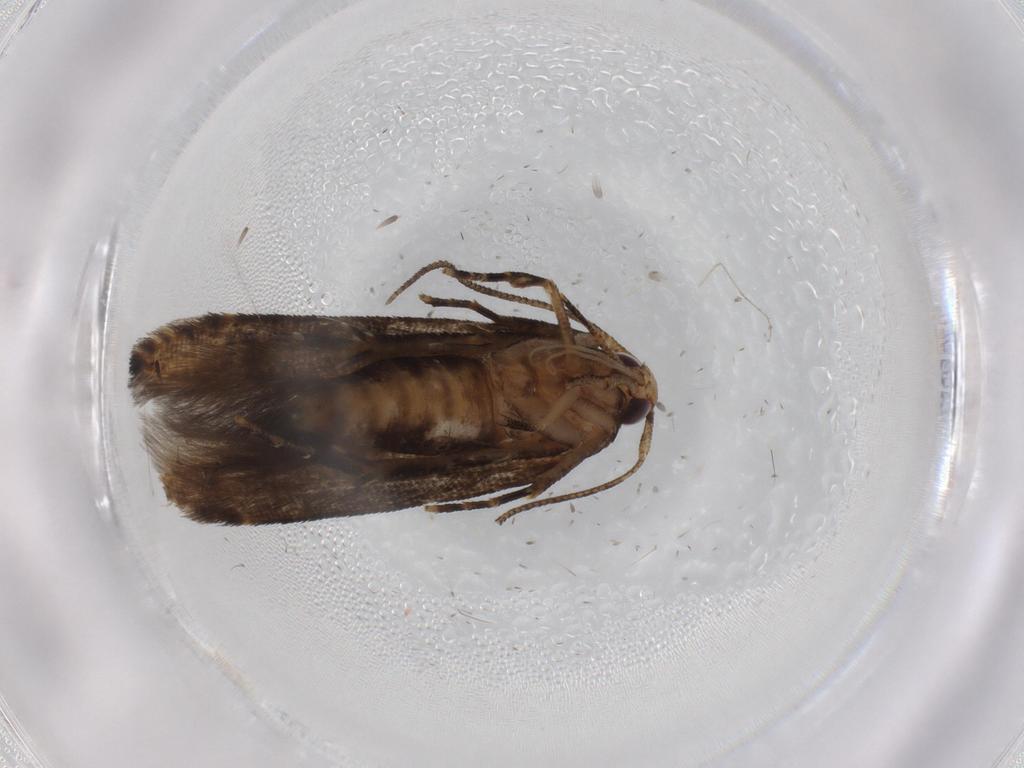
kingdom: Animalia
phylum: Arthropoda
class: Insecta
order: Lepidoptera
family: Gelechiidae
